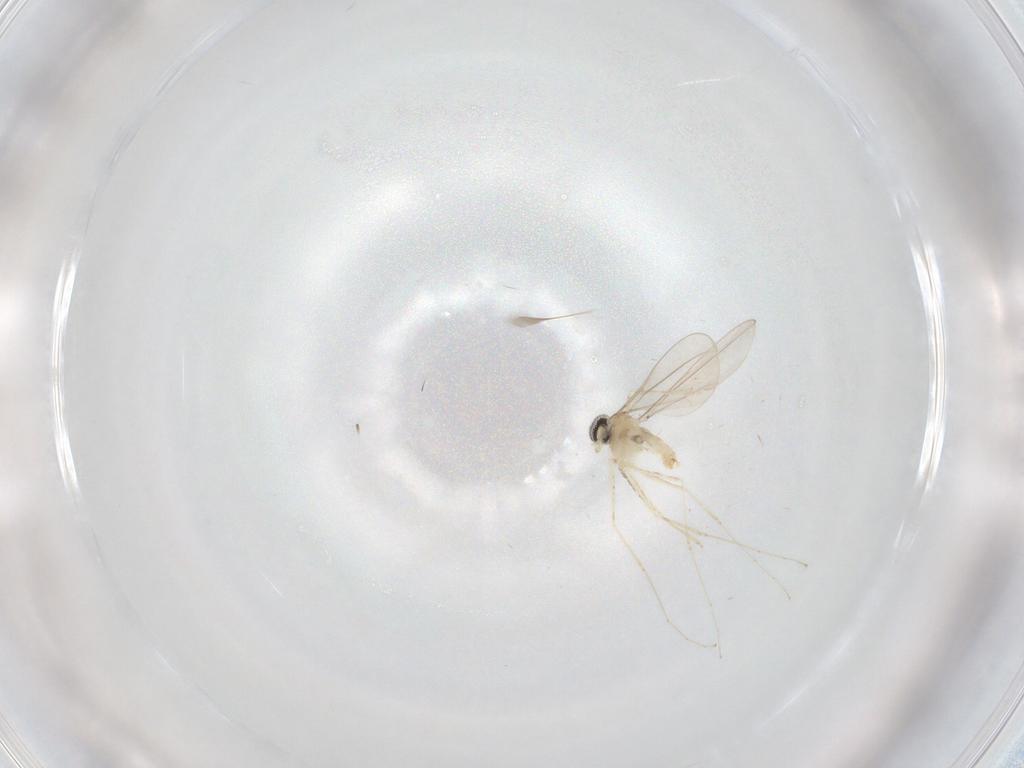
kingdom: Animalia
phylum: Arthropoda
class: Insecta
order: Diptera
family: Cecidomyiidae
